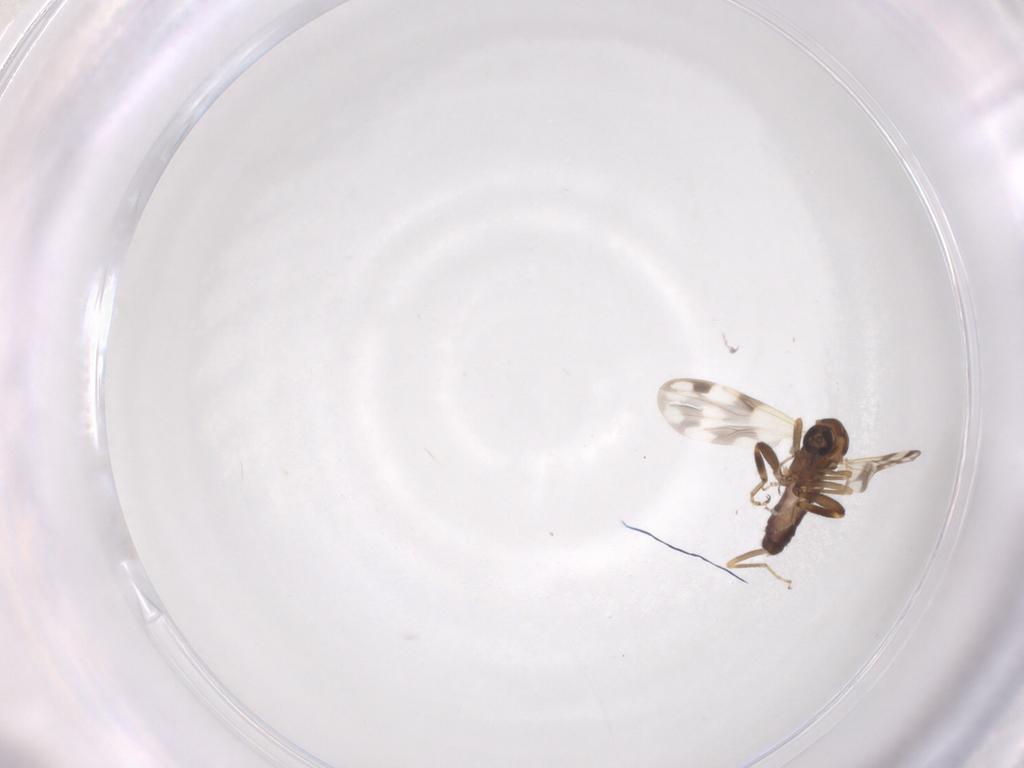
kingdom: Animalia
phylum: Arthropoda
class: Insecta
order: Diptera
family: Ceratopogonidae
